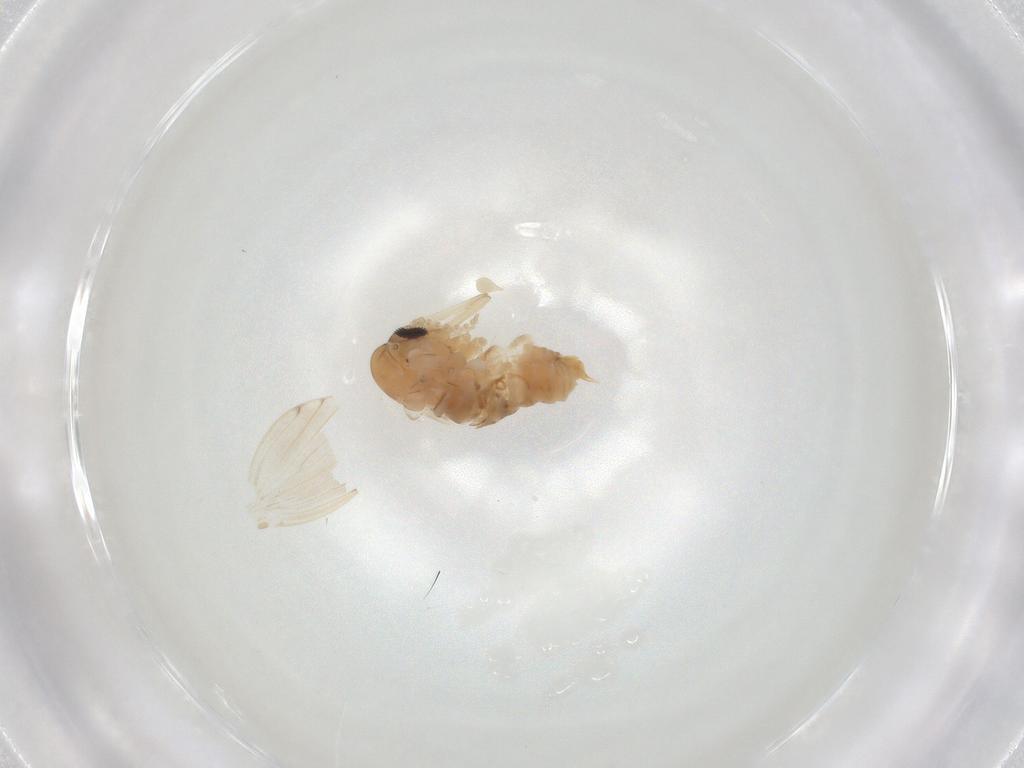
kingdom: Animalia
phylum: Arthropoda
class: Insecta
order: Diptera
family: Psychodidae
